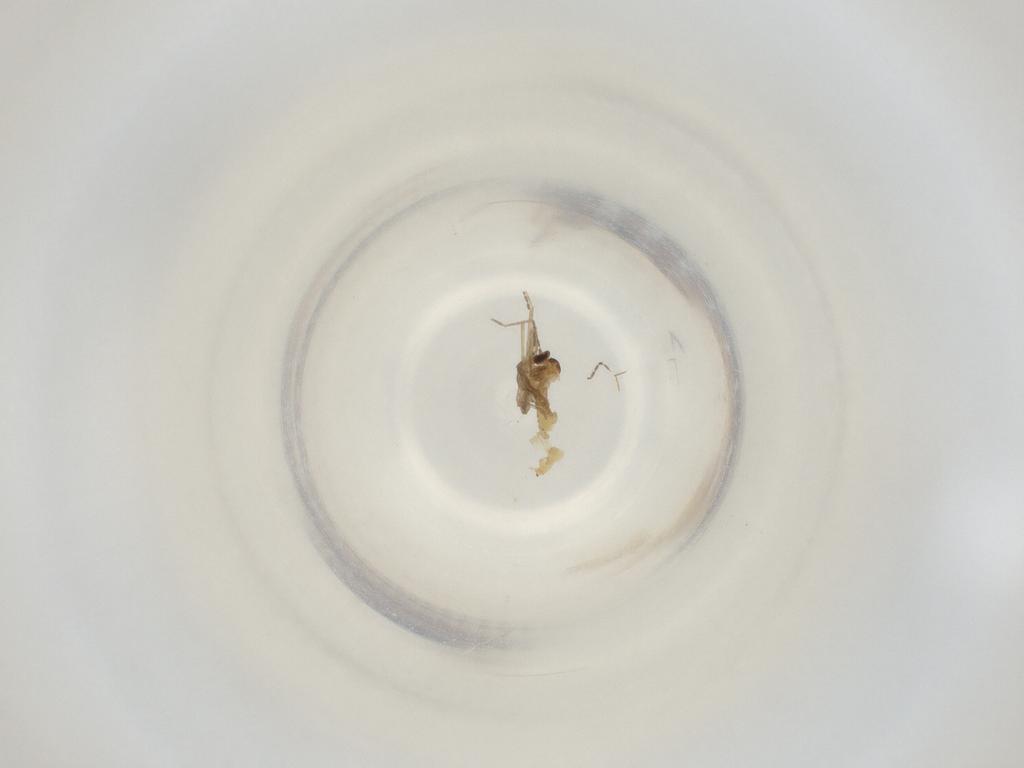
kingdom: Animalia
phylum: Arthropoda
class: Insecta
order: Diptera
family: Cecidomyiidae
